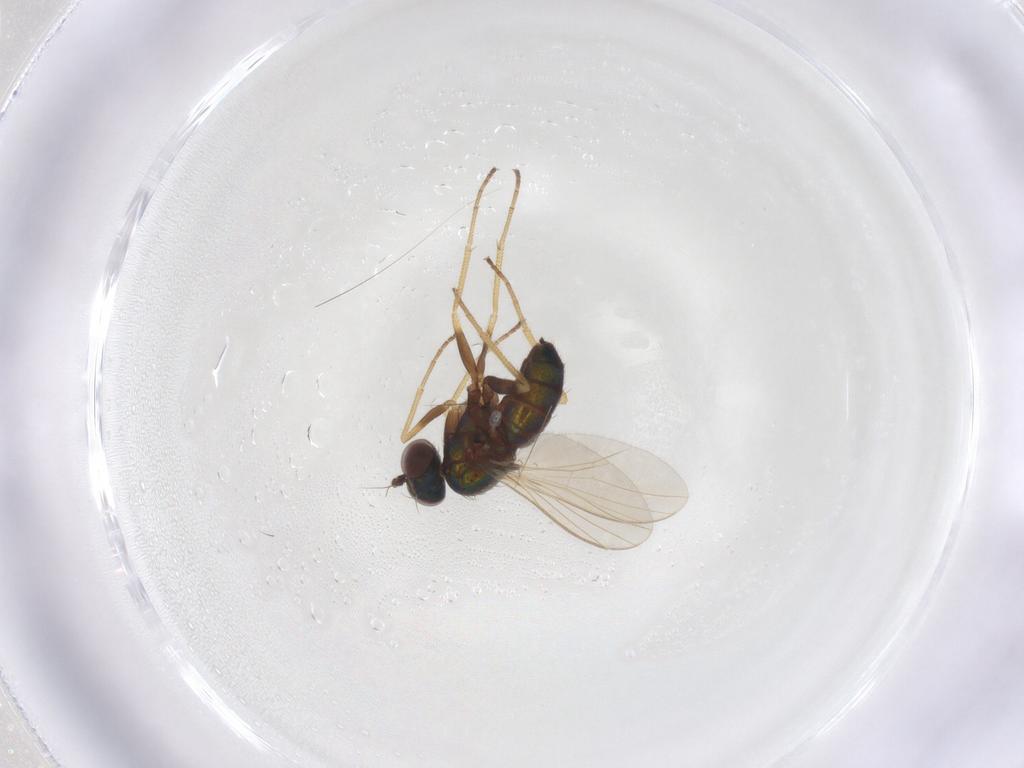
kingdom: Animalia
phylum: Arthropoda
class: Insecta
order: Diptera
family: Dolichopodidae
